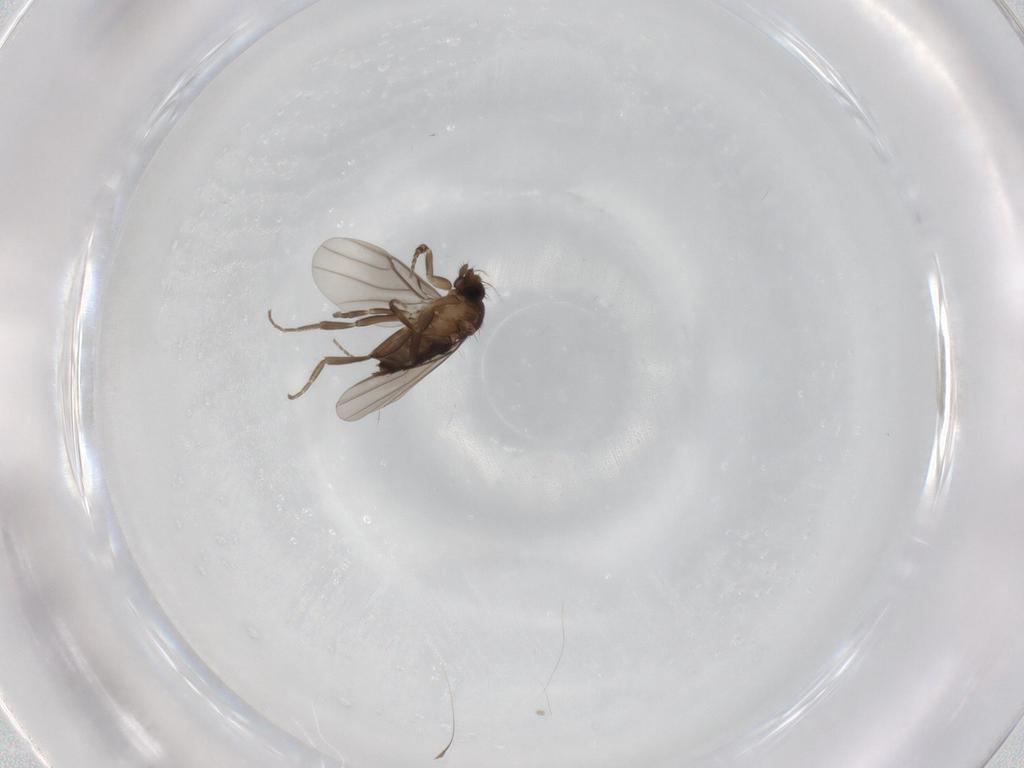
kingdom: Animalia
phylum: Arthropoda
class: Insecta
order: Diptera
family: Phoridae
